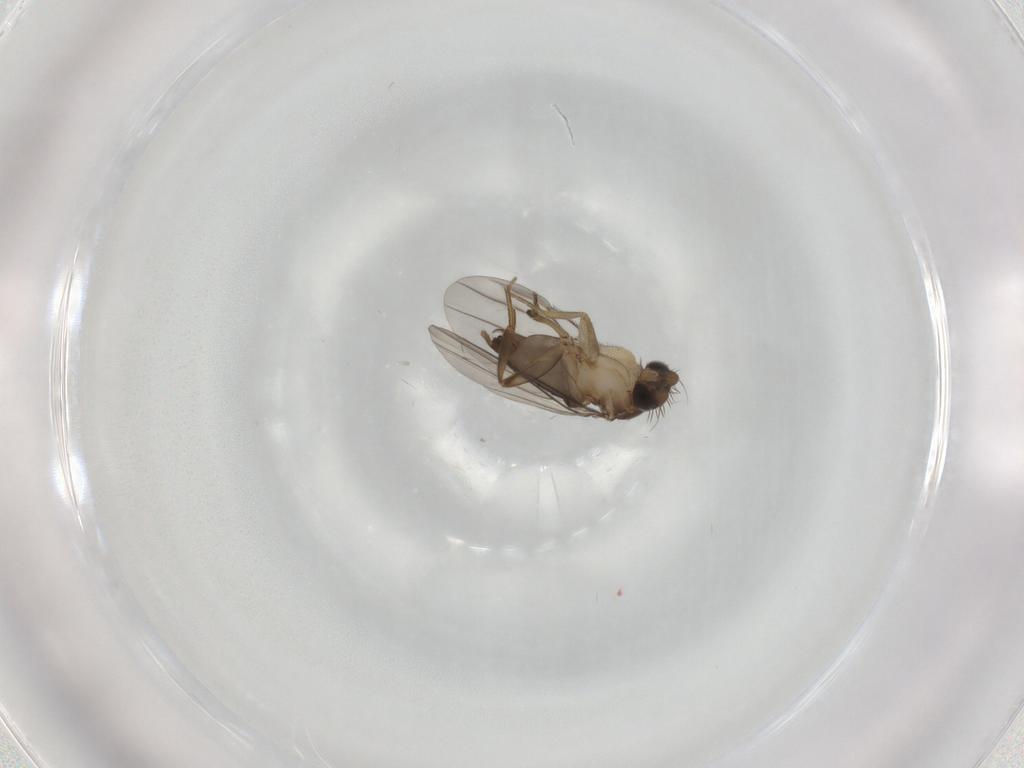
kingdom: Animalia
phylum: Arthropoda
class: Insecta
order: Diptera
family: Phoridae
